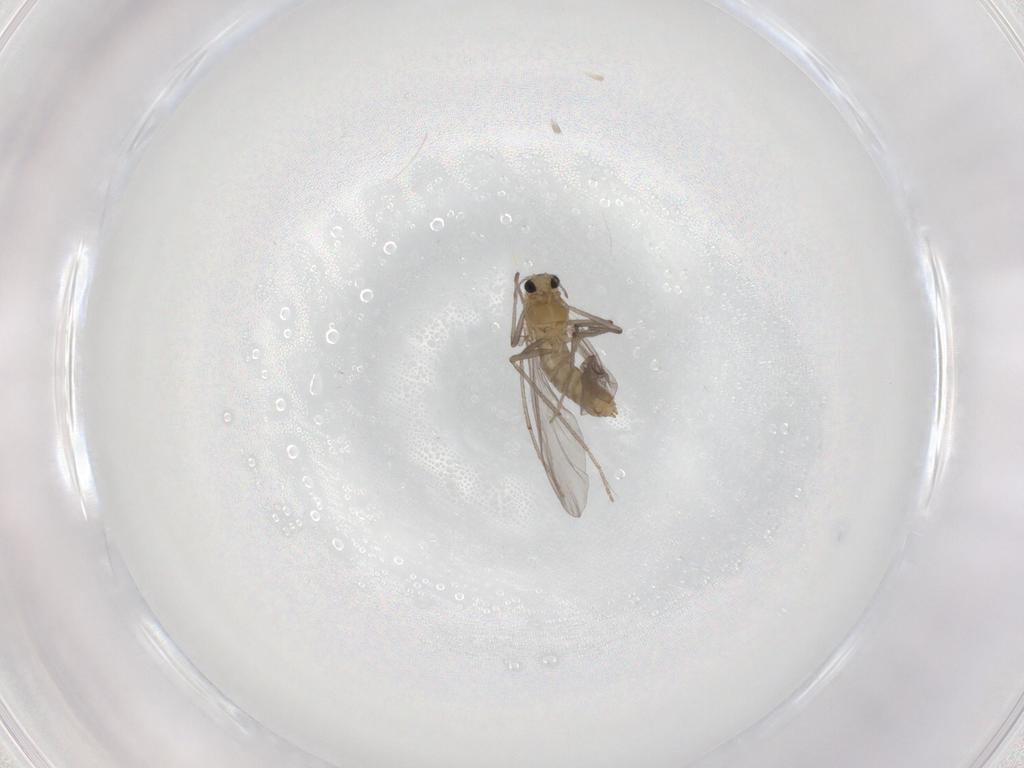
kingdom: Animalia
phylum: Arthropoda
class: Insecta
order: Diptera
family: Chironomidae
